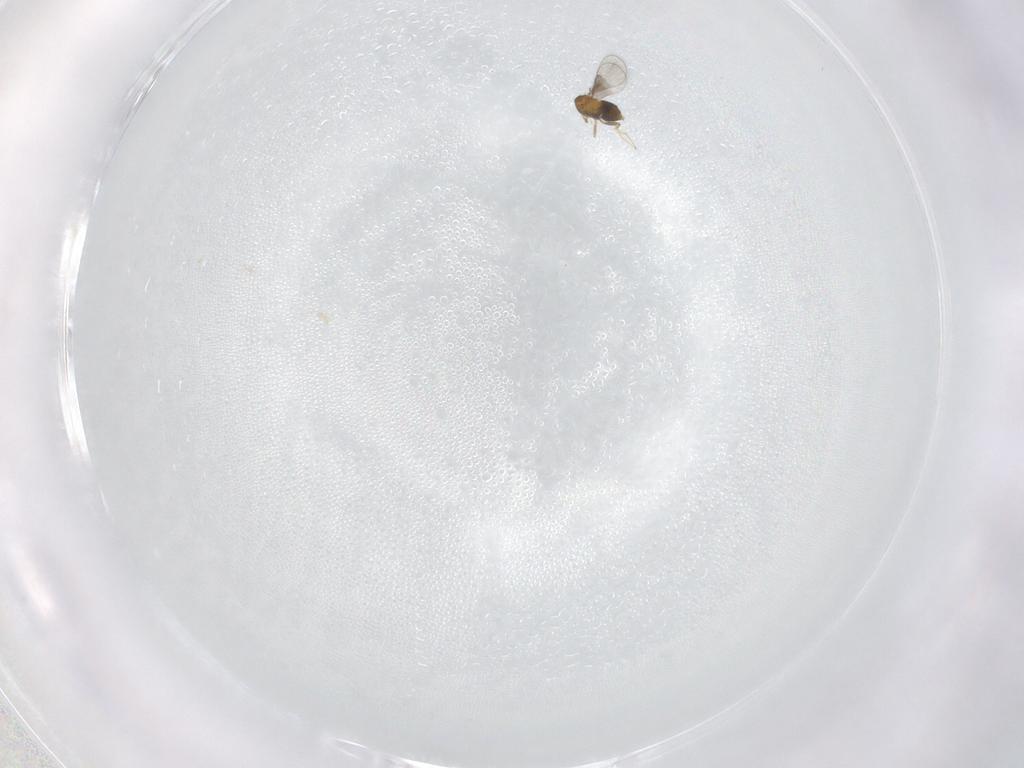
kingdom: Animalia
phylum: Arthropoda
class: Insecta
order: Hymenoptera
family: Trichogrammatidae
